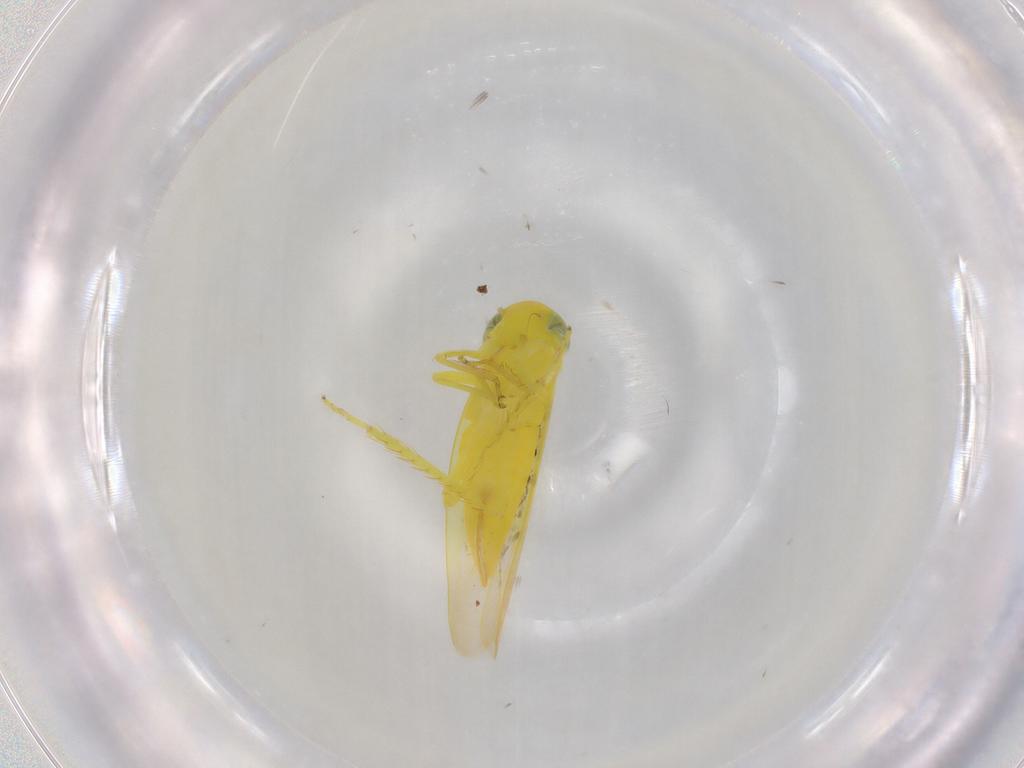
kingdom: Animalia
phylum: Arthropoda
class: Insecta
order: Hemiptera
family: Cicadellidae
